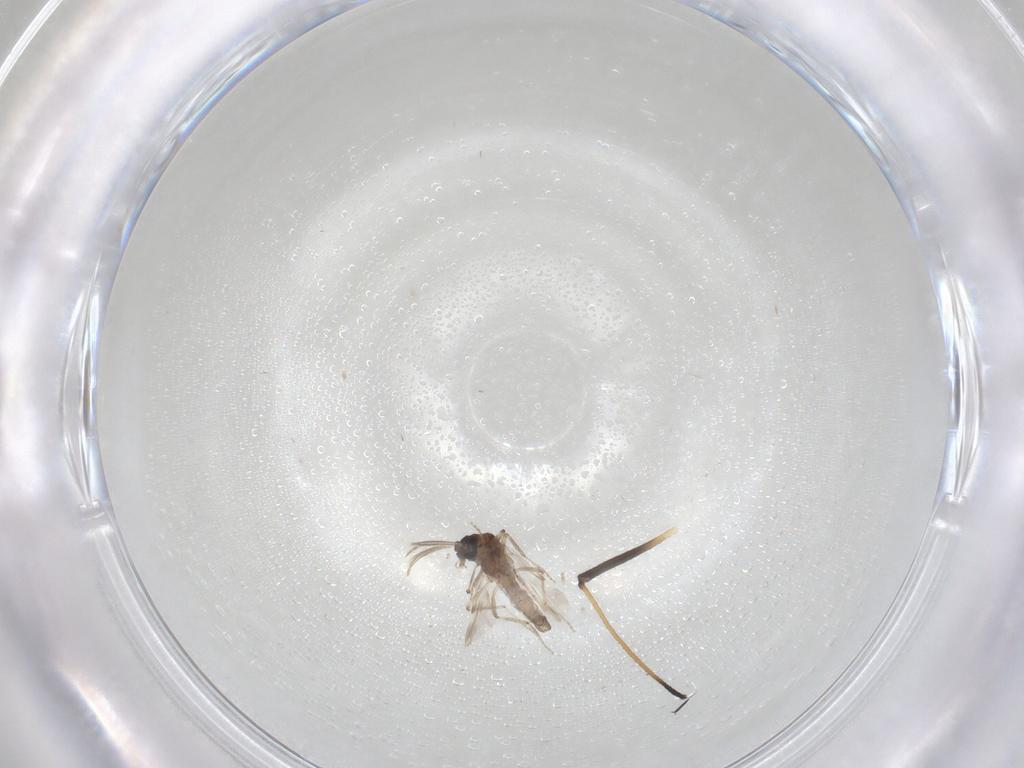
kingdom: Animalia
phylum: Arthropoda
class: Insecta
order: Diptera
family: Ceratopogonidae
